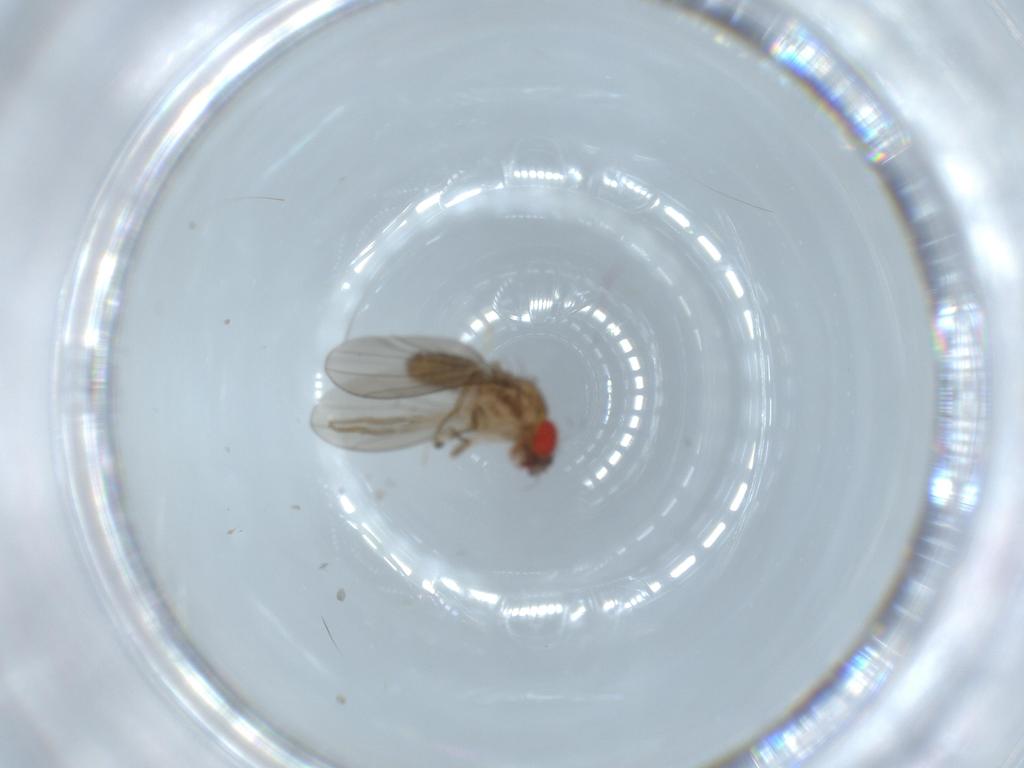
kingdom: Animalia
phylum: Arthropoda
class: Insecta
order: Diptera
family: Drosophilidae
